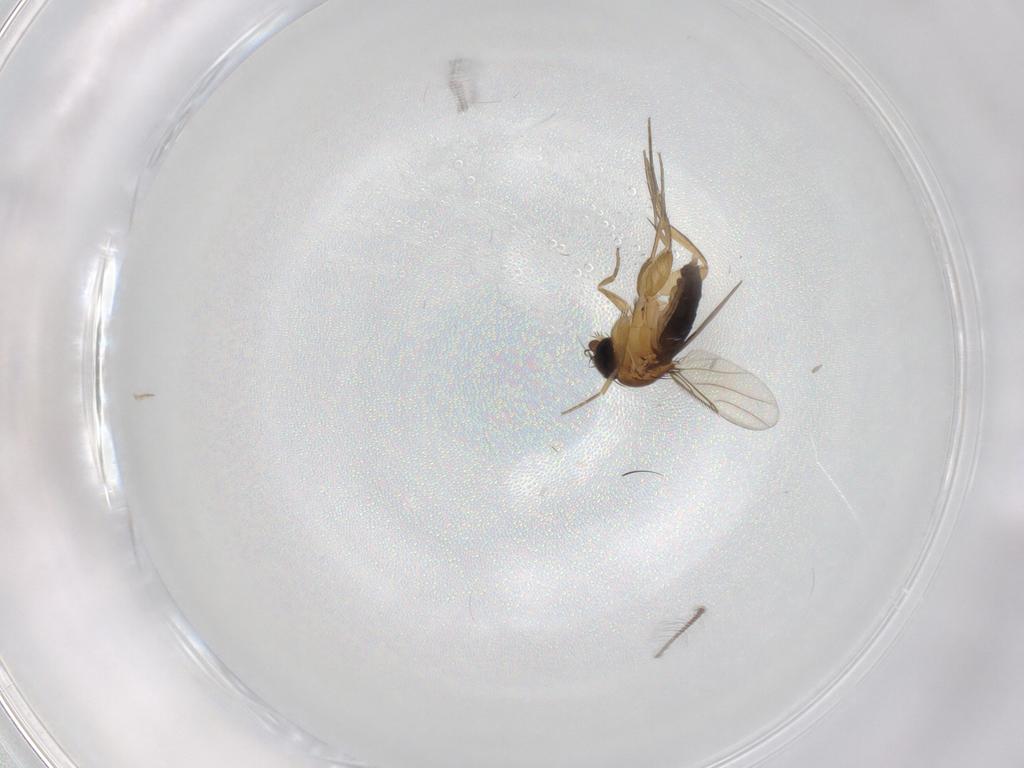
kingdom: Animalia
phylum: Arthropoda
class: Insecta
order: Diptera
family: Phoridae
